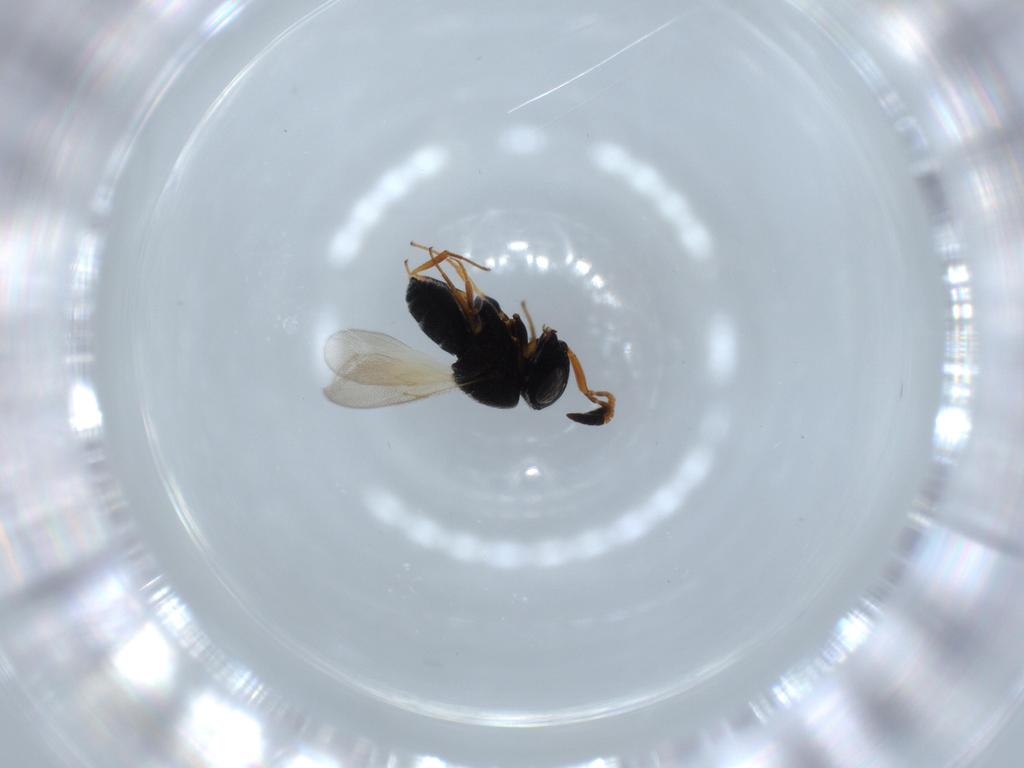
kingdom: Animalia
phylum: Arthropoda
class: Insecta
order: Hymenoptera
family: Scelionidae
